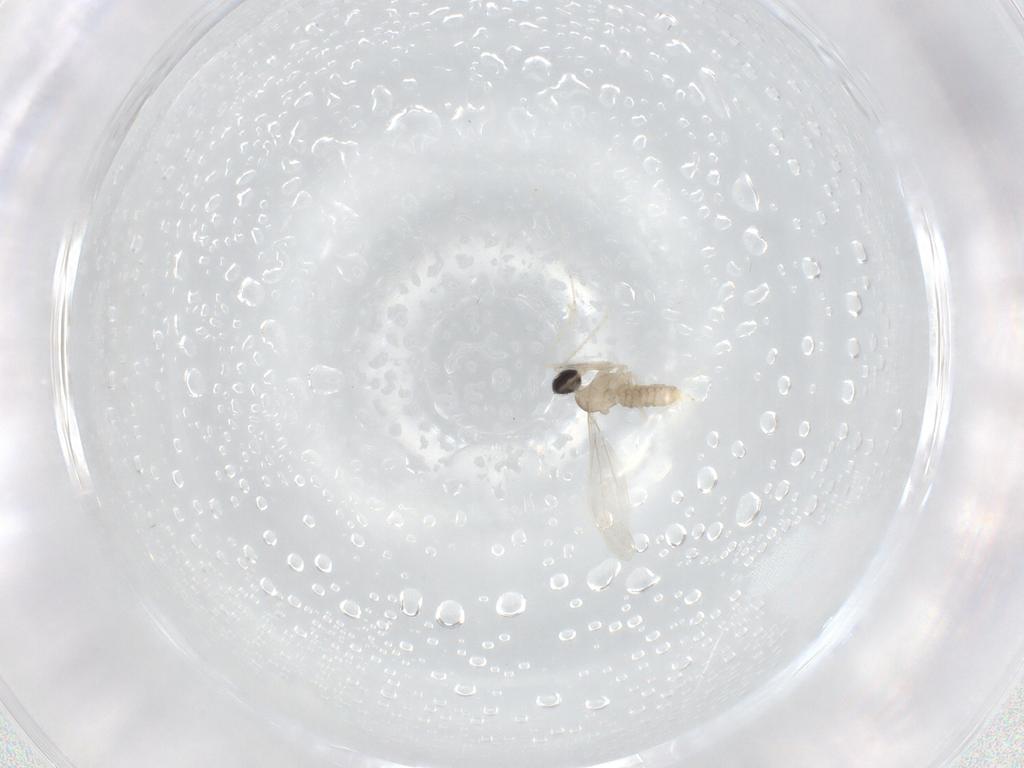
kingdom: Animalia
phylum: Arthropoda
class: Insecta
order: Diptera
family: Cecidomyiidae
